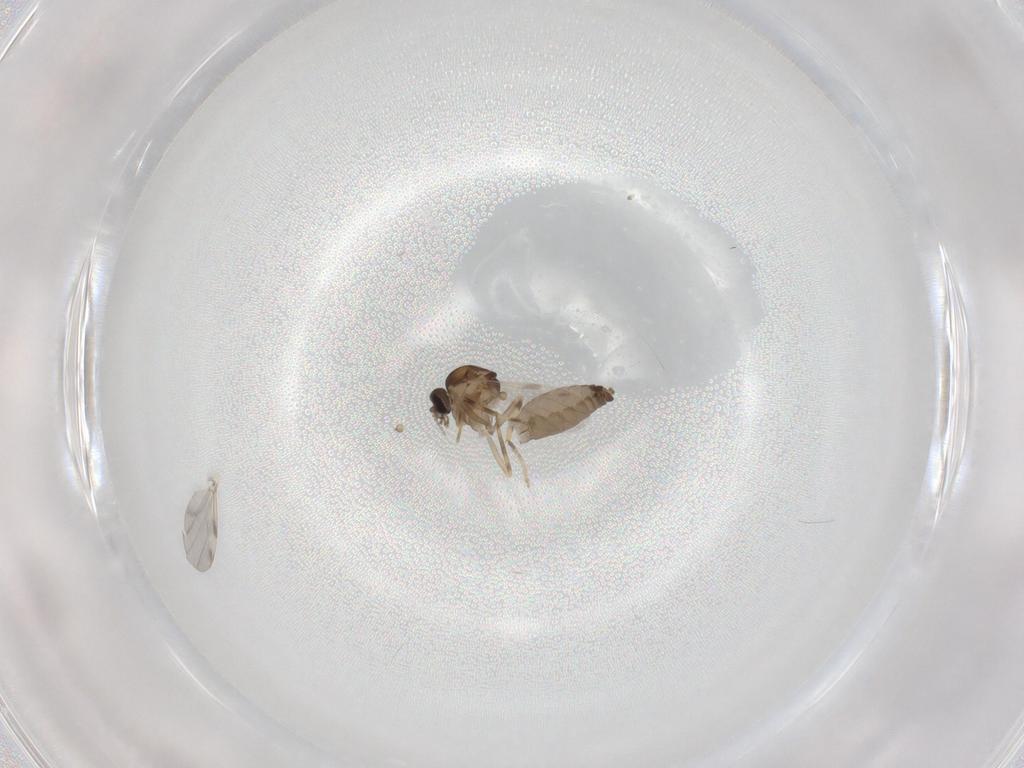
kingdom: Animalia
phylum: Arthropoda
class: Insecta
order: Diptera
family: Ceratopogonidae
